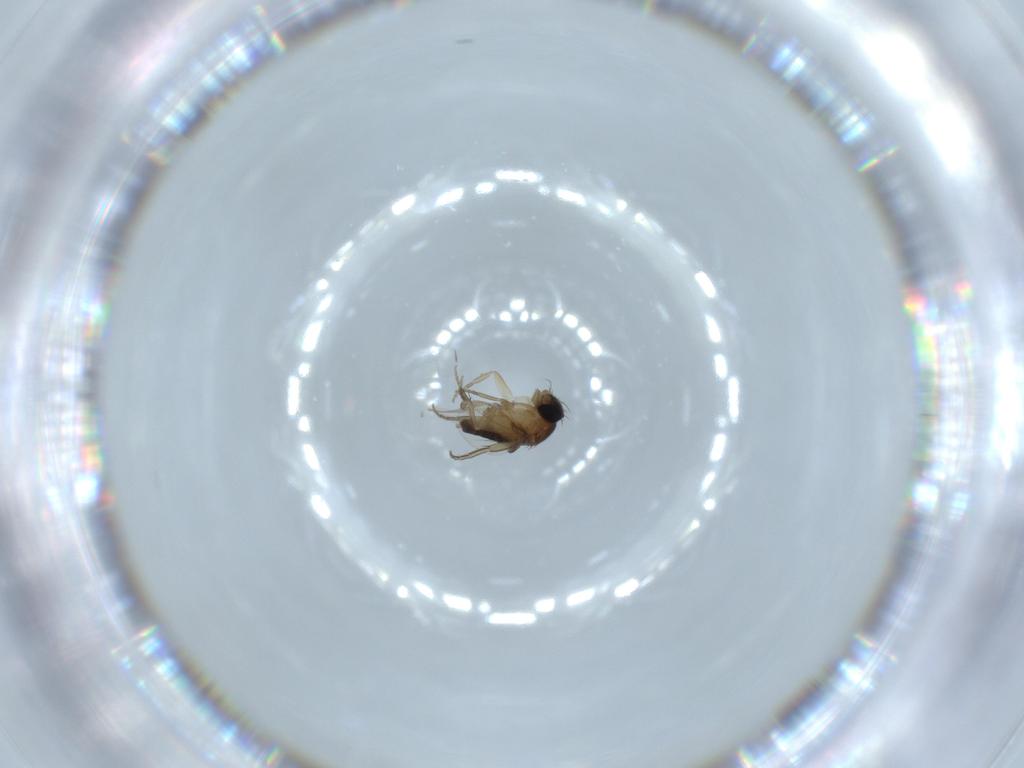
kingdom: Animalia
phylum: Arthropoda
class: Insecta
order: Diptera
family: Phoridae
